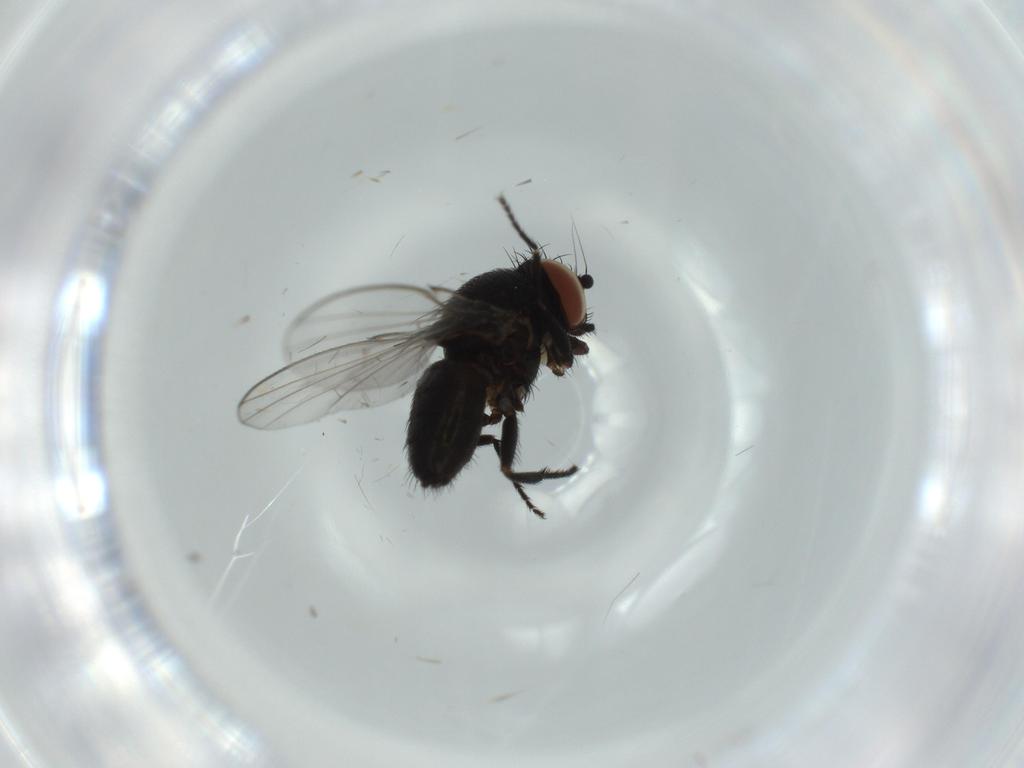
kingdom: Animalia
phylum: Arthropoda
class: Insecta
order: Diptera
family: Milichiidae
